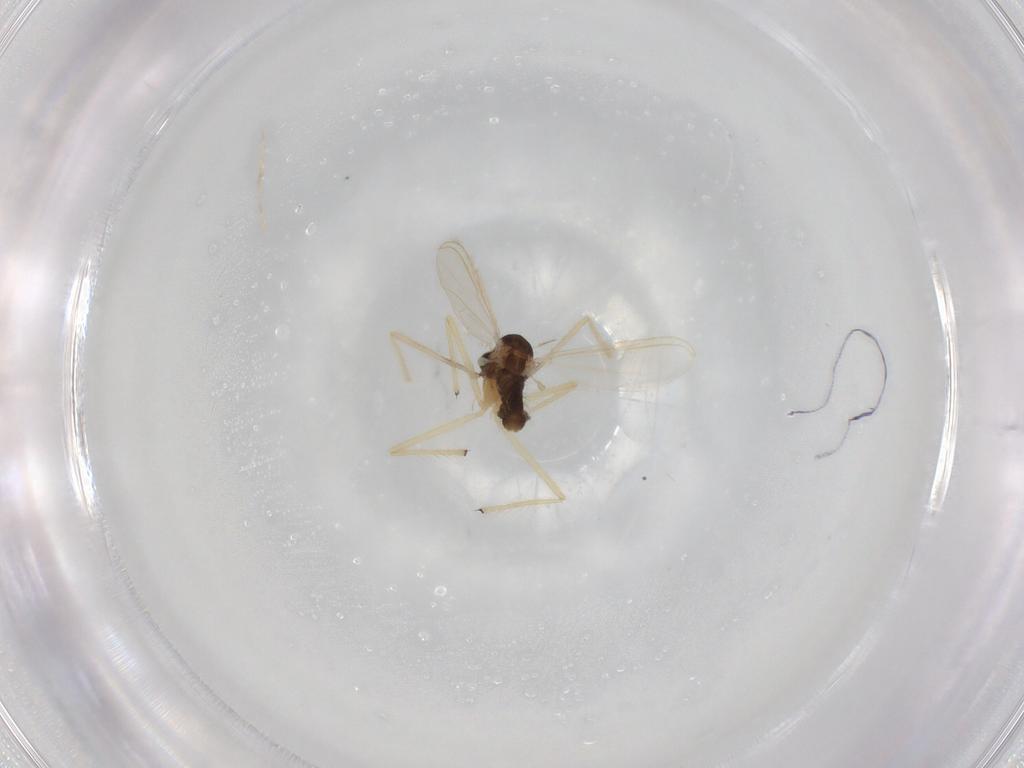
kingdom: Animalia
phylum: Arthropoda
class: Insecta
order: Diptera
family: Chironomidae
